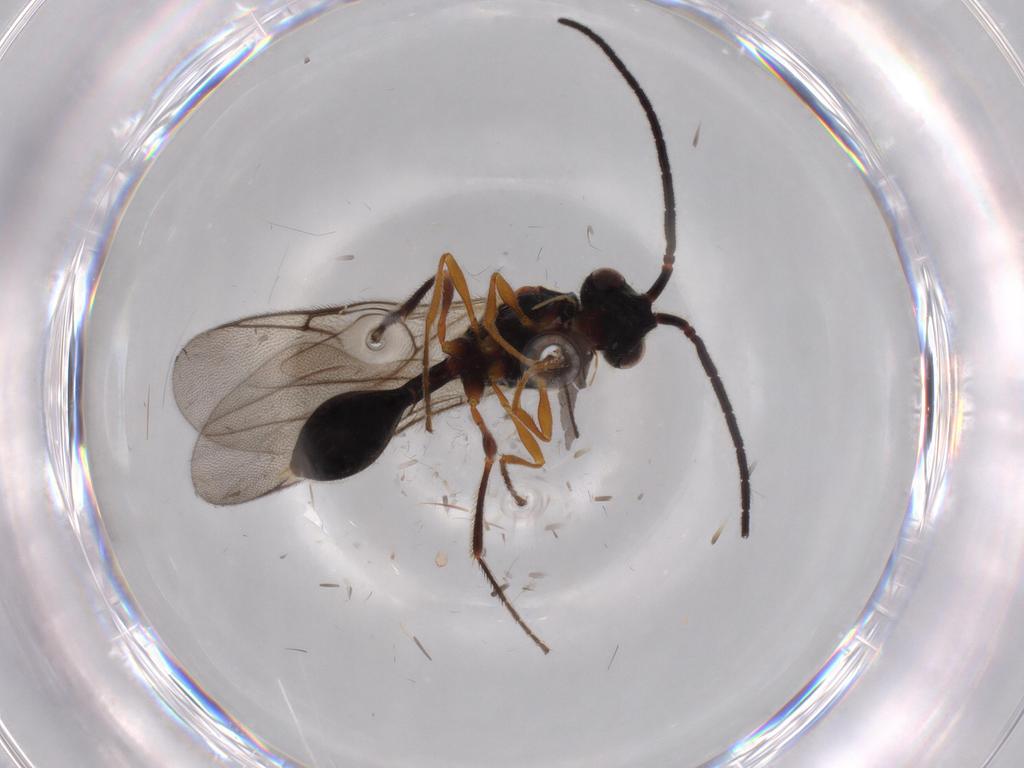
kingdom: Animalia
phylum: Arthropoda
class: Insecta
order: Hymenoptera
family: Diapriidae
